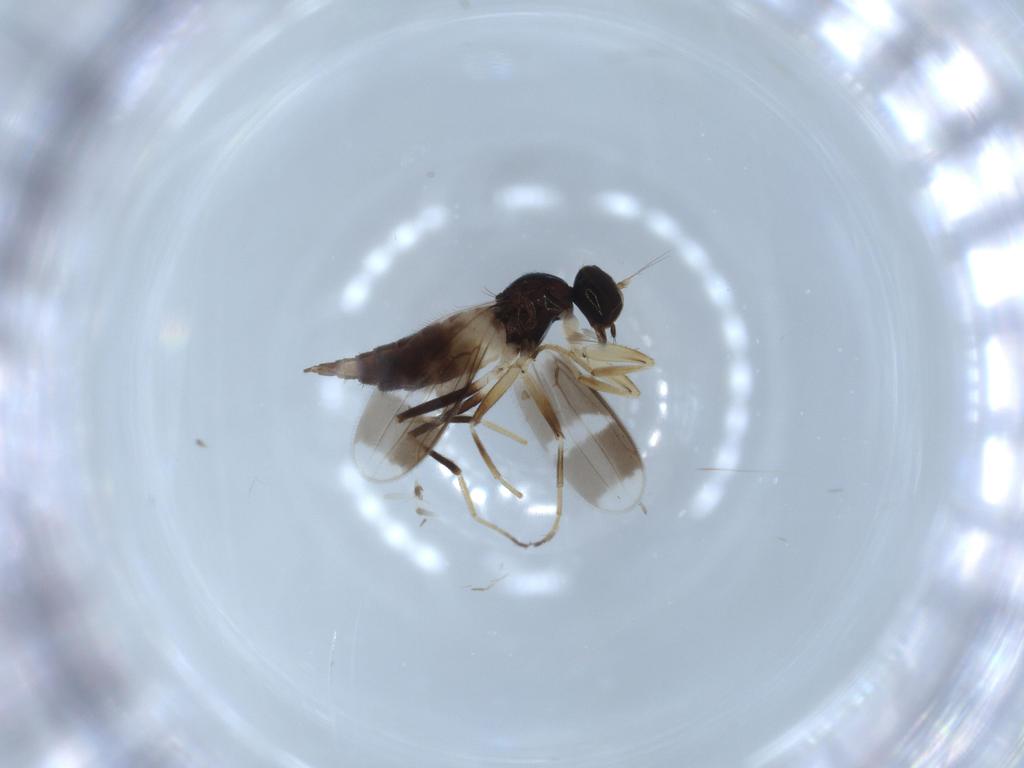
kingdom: Animalia
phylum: Arthropoda
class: Insecta
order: Diptera
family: Hybotidae
